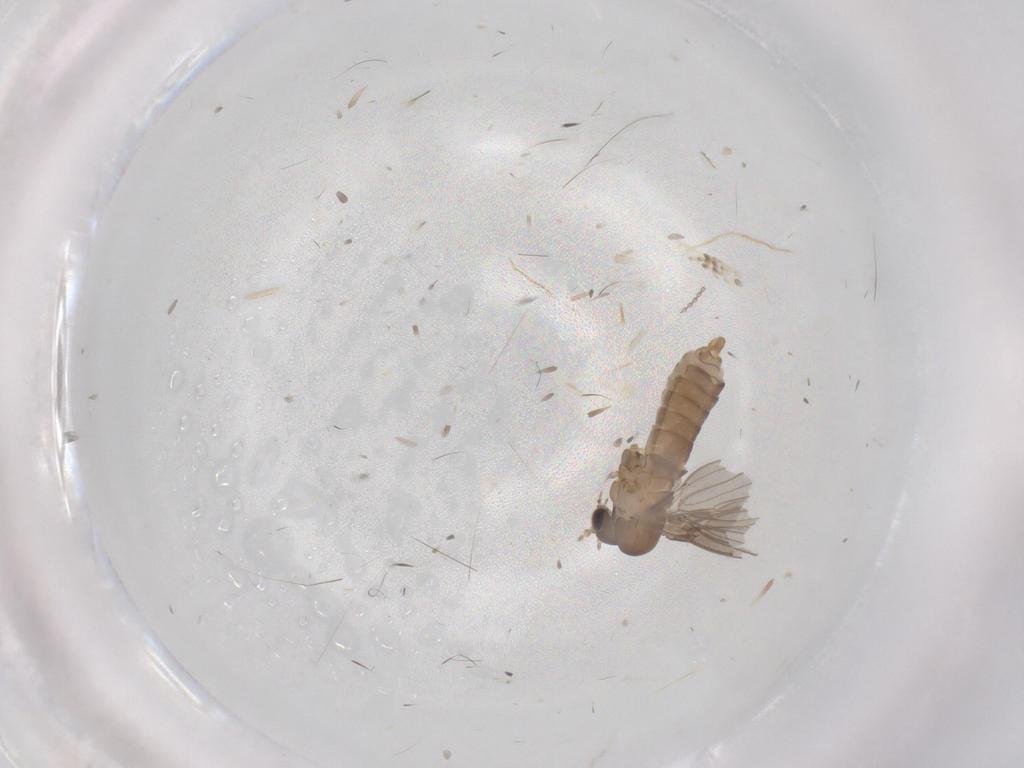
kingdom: Animalia
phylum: Arthropoda
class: Insecta
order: Diptera
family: Psychodidae
